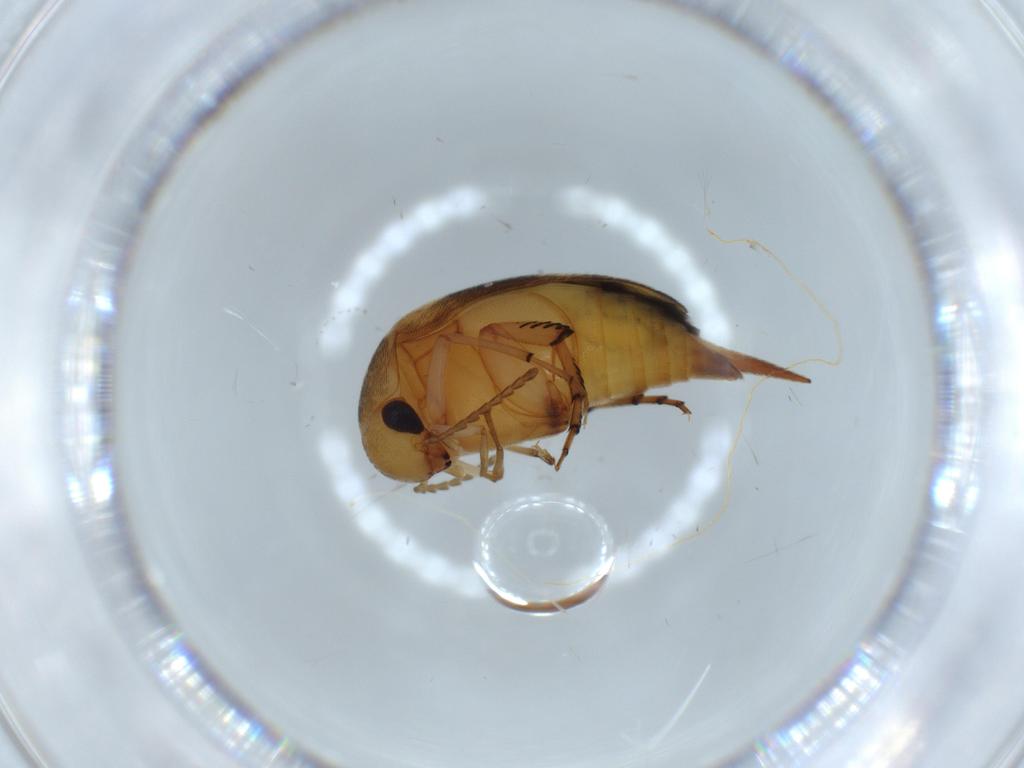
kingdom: Animalia
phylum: Arthropoda
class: Insecta
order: Coleoptera
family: Mordellidae
